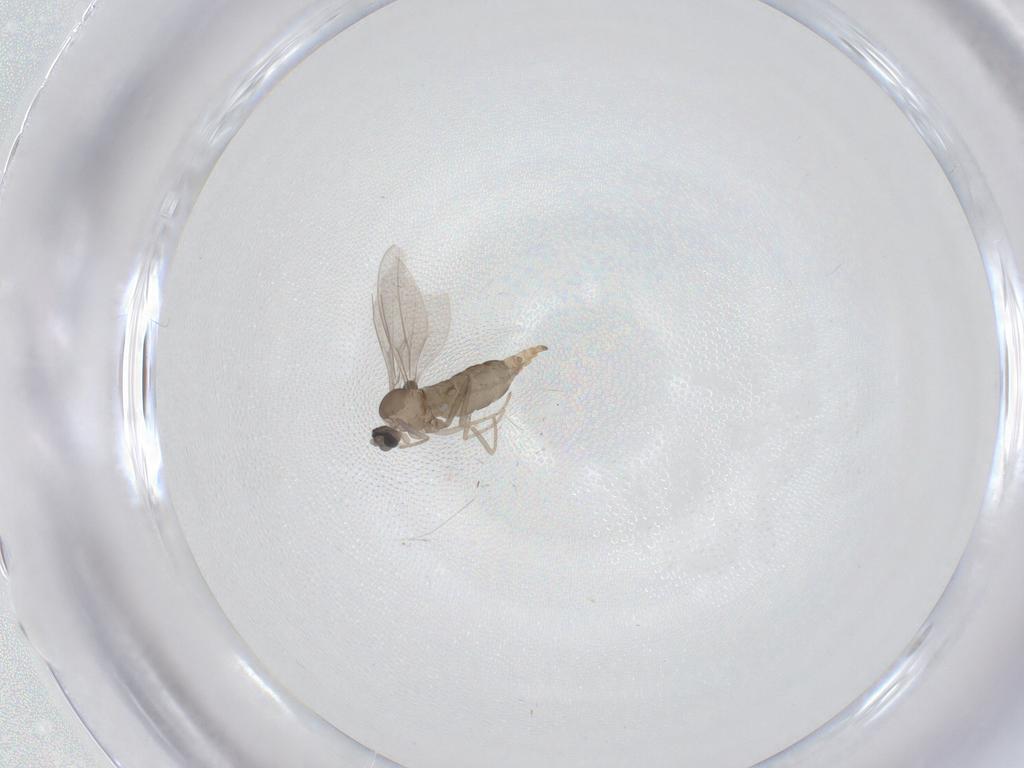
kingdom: Animalia
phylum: Arthropoda
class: Insecta
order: Diptera
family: Cecidomyiidae
